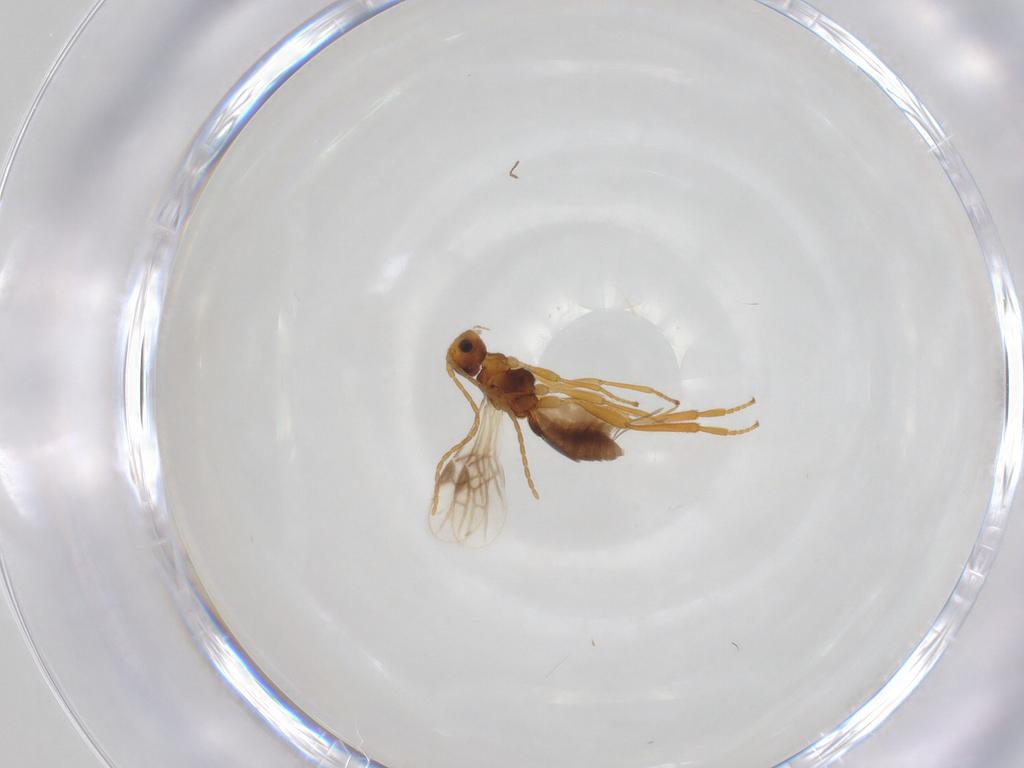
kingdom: Animalia
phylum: Arthropoda
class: Insecta
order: Hymenoptera
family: Braconidae
